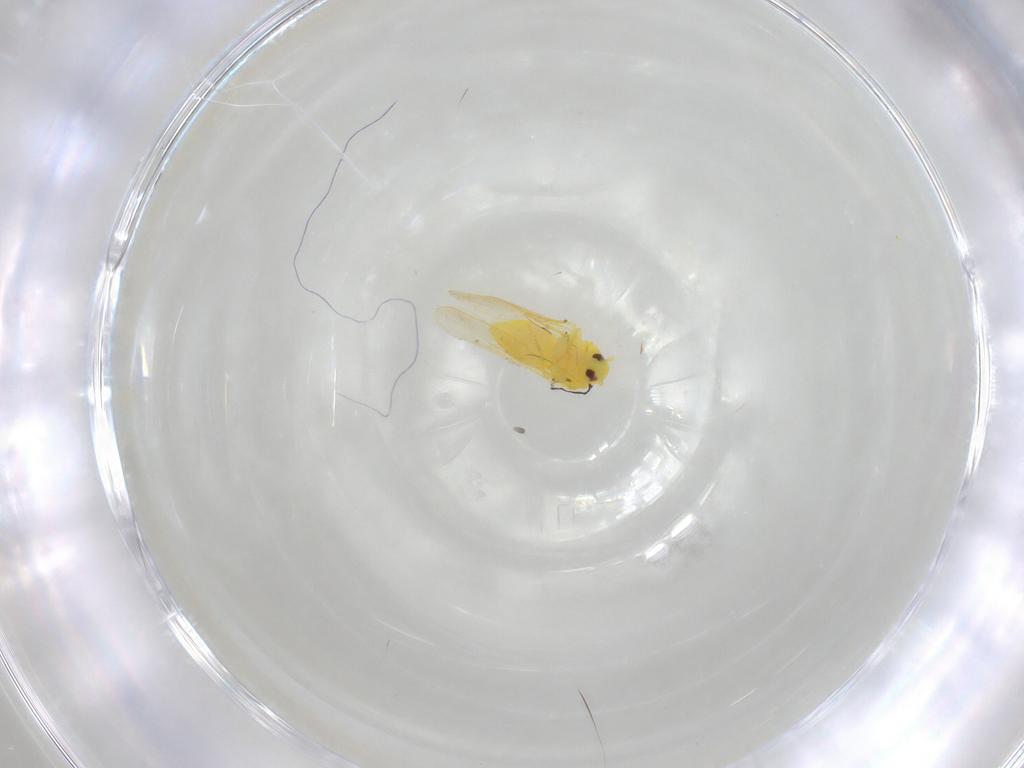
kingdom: Animalia
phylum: Arthropoda
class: Insecta
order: Hemiptera
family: Aleyrodidae
